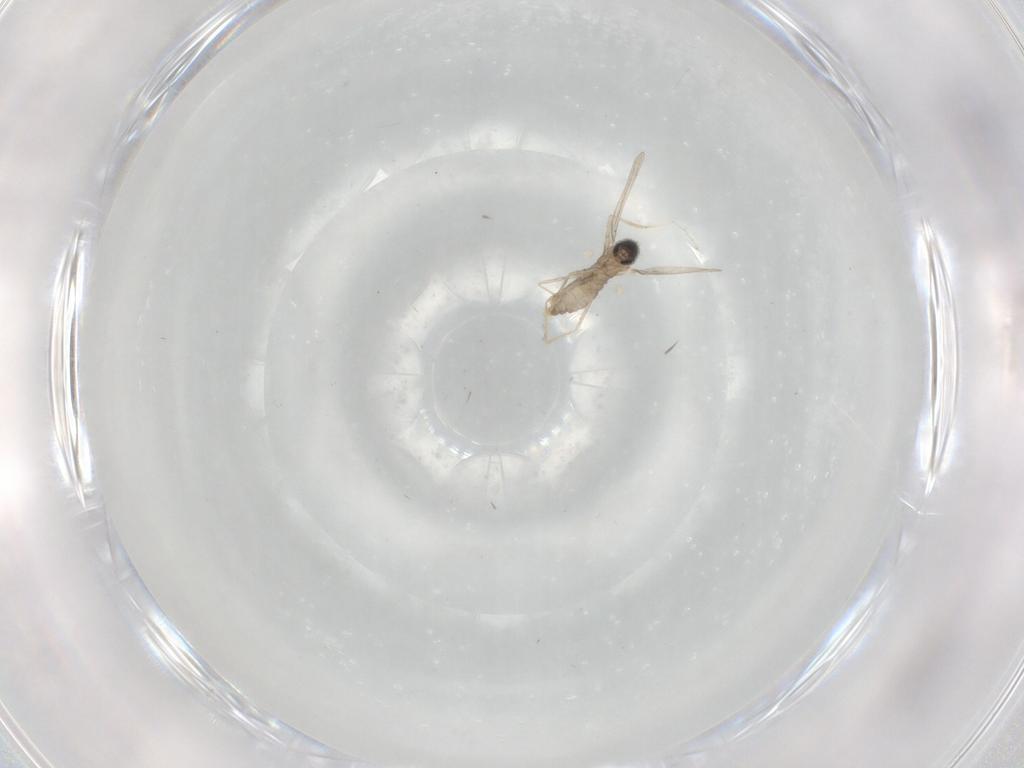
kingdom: Animalia
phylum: Arthropoda
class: Insecta
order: Diptera
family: Cecidomyiidae
